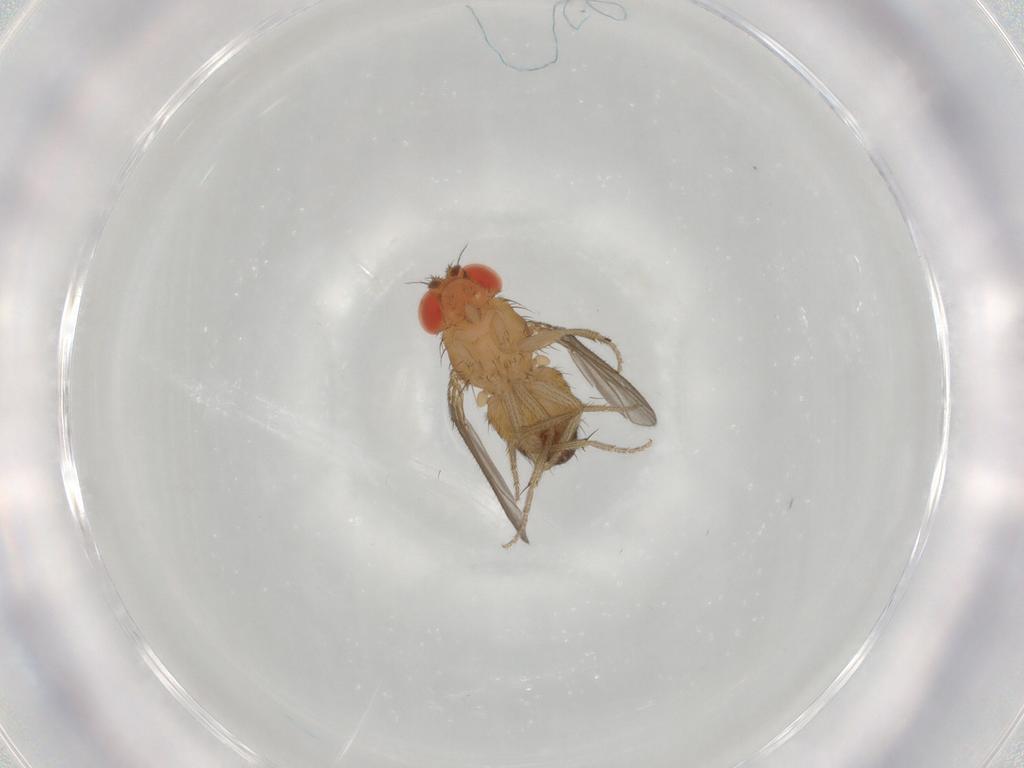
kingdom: Animalia
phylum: Arthropoda
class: Insecta
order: Diptera
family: Drosophilidae
